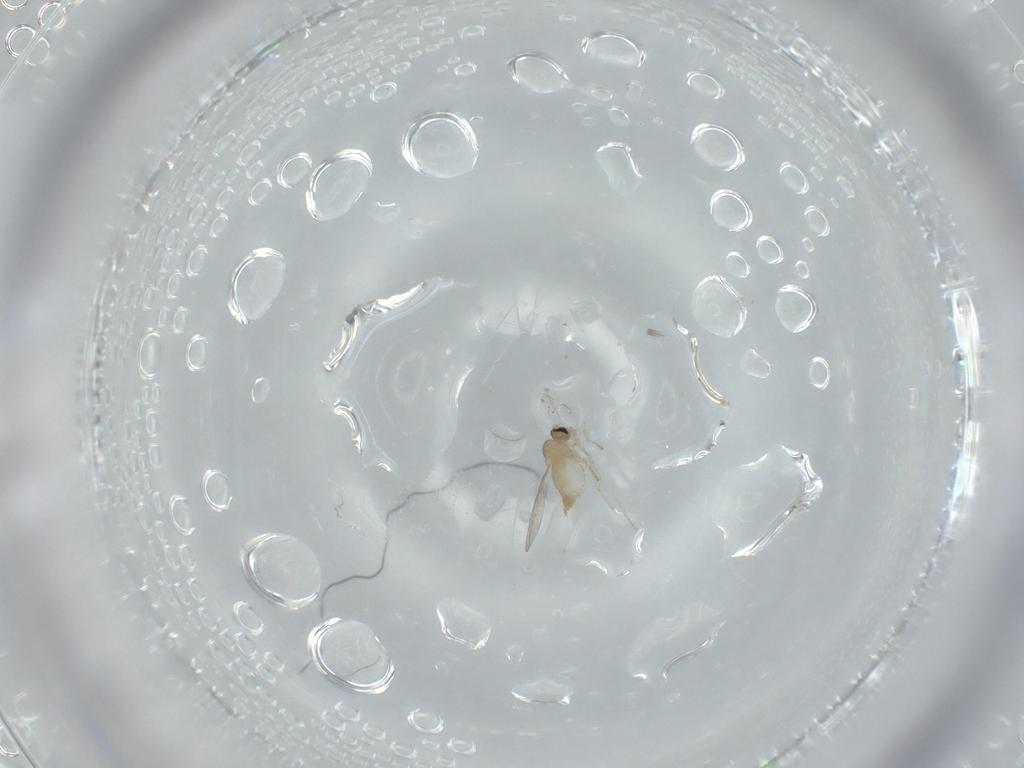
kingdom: Animalia
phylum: Arthropoda
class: Insecta
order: Diptera
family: Cecidomyiidae
